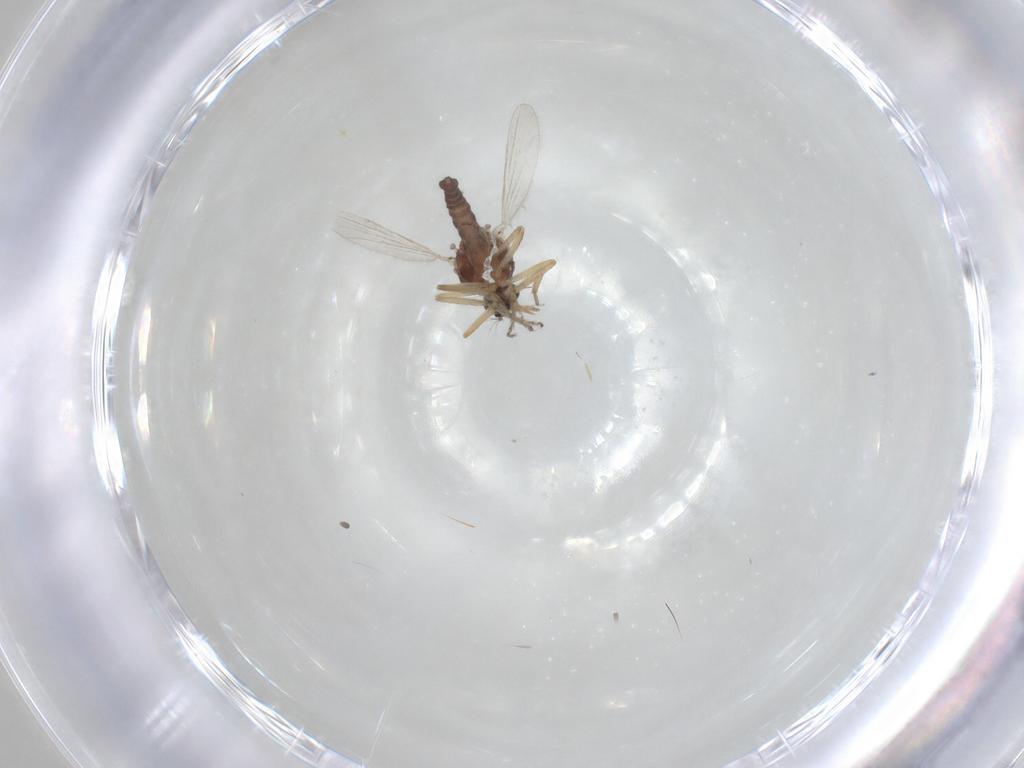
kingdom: Animalia
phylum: Arthropoda
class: Insecta
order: Diptera
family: Ceratopogonidae
